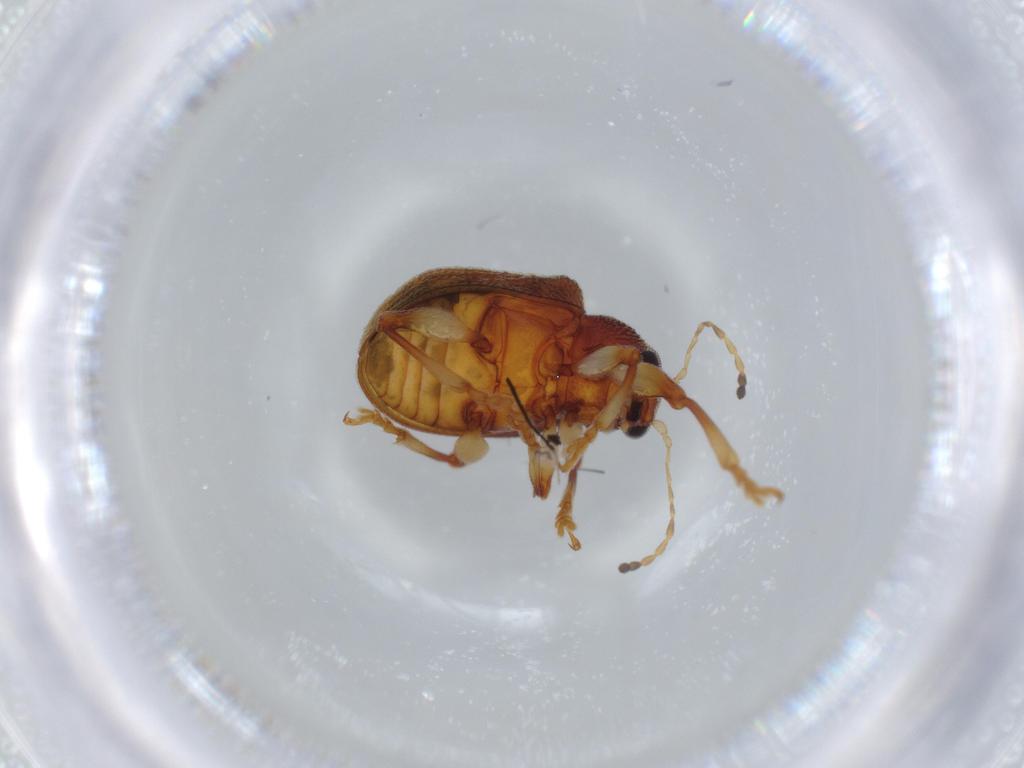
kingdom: Animalia
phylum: Arthropoda
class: Insecta
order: Coleoptera
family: Chrysomelidae
